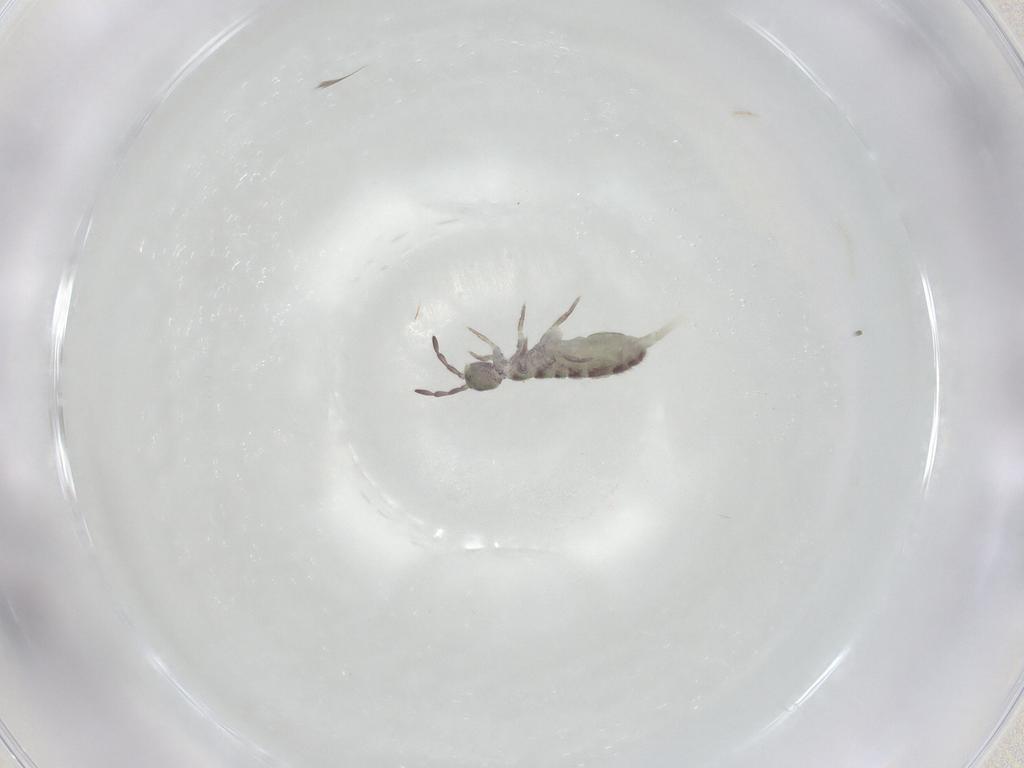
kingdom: Animalia
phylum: Arthropoda
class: Collembola
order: Entomobryomorpha
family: Isotomidae
